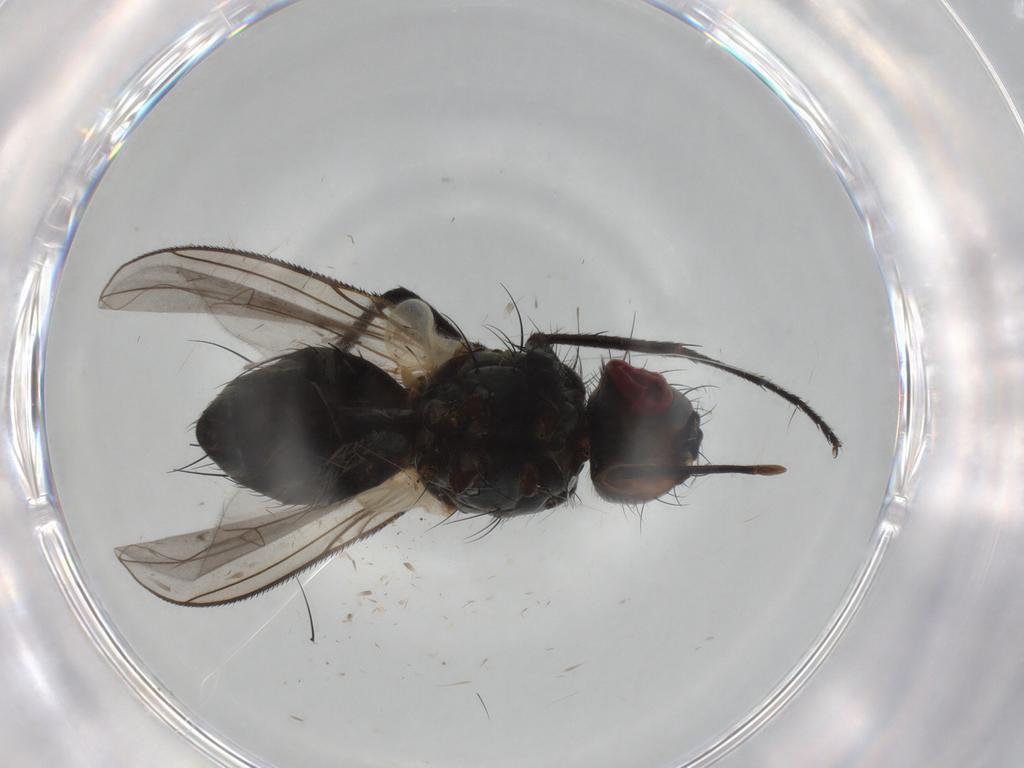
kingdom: Animalia
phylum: Arthropoda
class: Insecta
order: Diptera
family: Tachinidae
